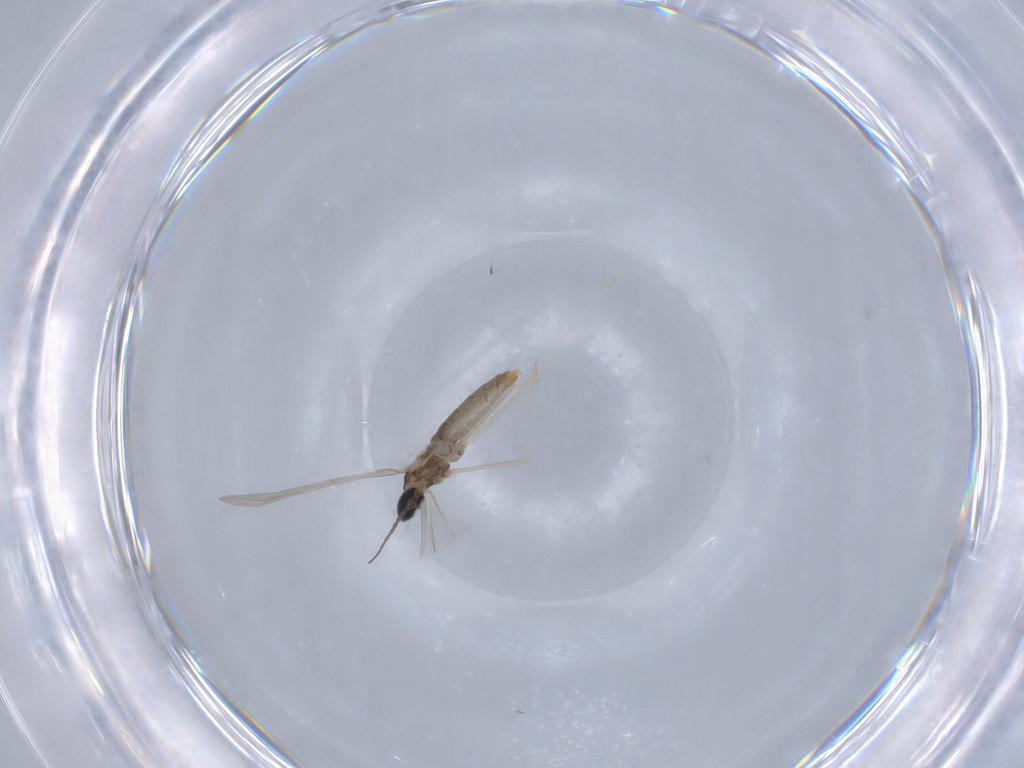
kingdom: Animalia
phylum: Arthropoda
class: Insecta
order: Diptera
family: Cecidomyiidae
